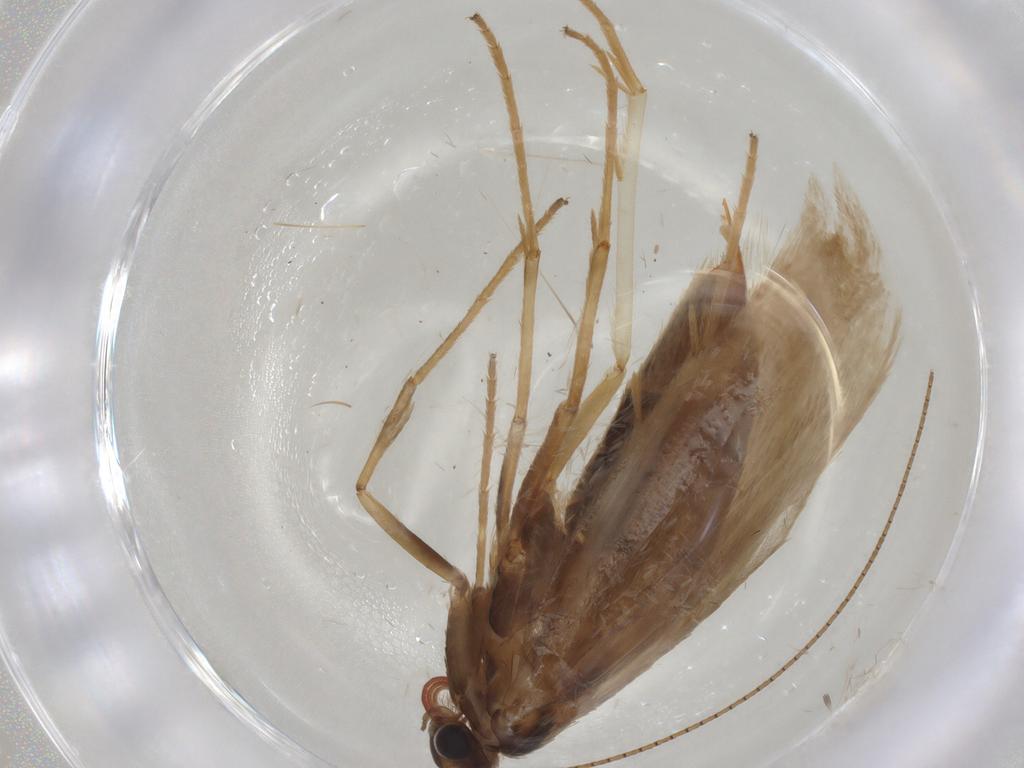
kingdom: Animalia
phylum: Arthropoda
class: Insecta
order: Lepidoptera
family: Adelidae
